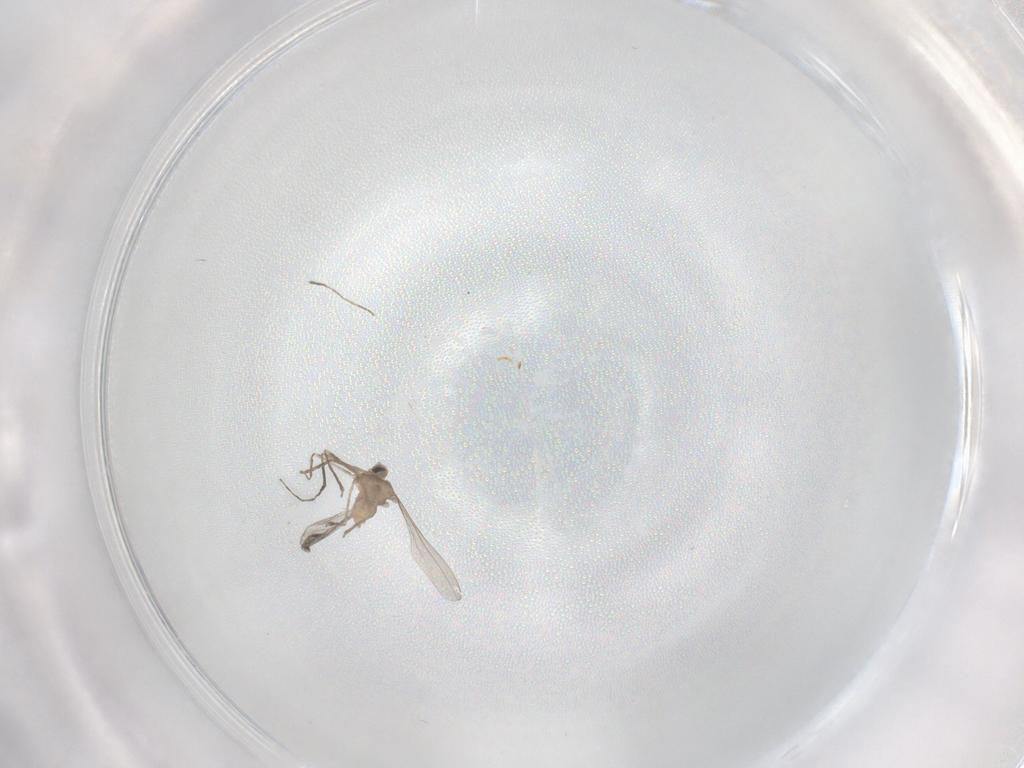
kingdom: Animalia
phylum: Arthropoda
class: Insecta
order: Diptera
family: Cecidomyiidae
